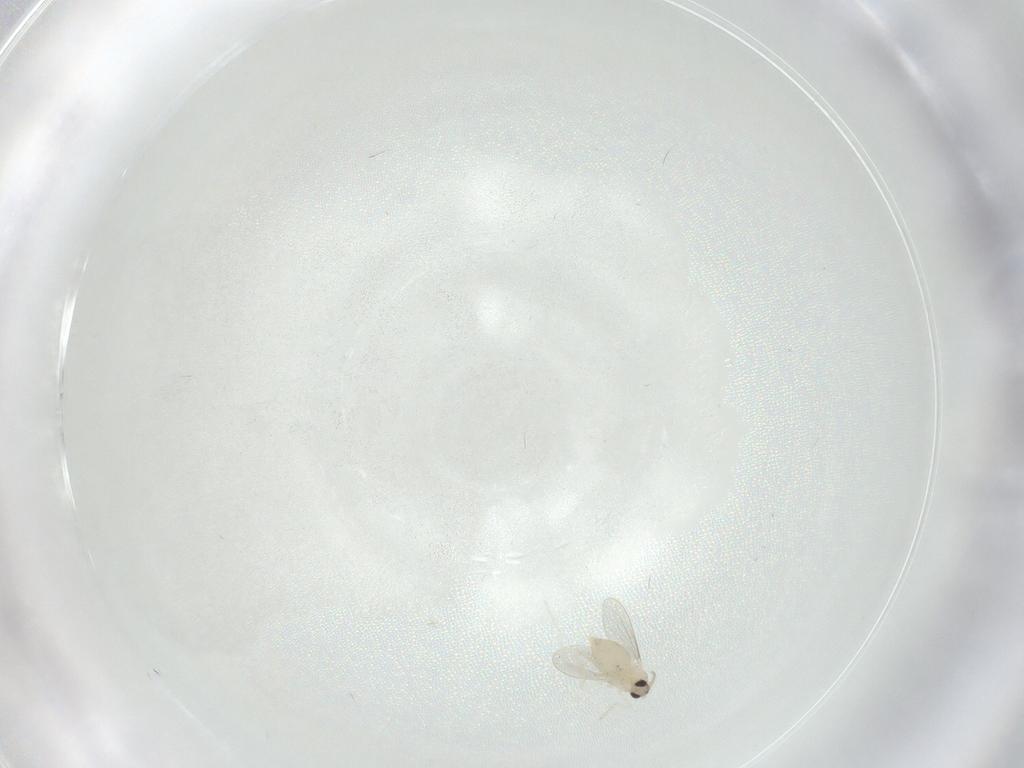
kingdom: Animalia
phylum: Arthropoda
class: Insecta
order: Diptera
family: Cecidomyiidae
